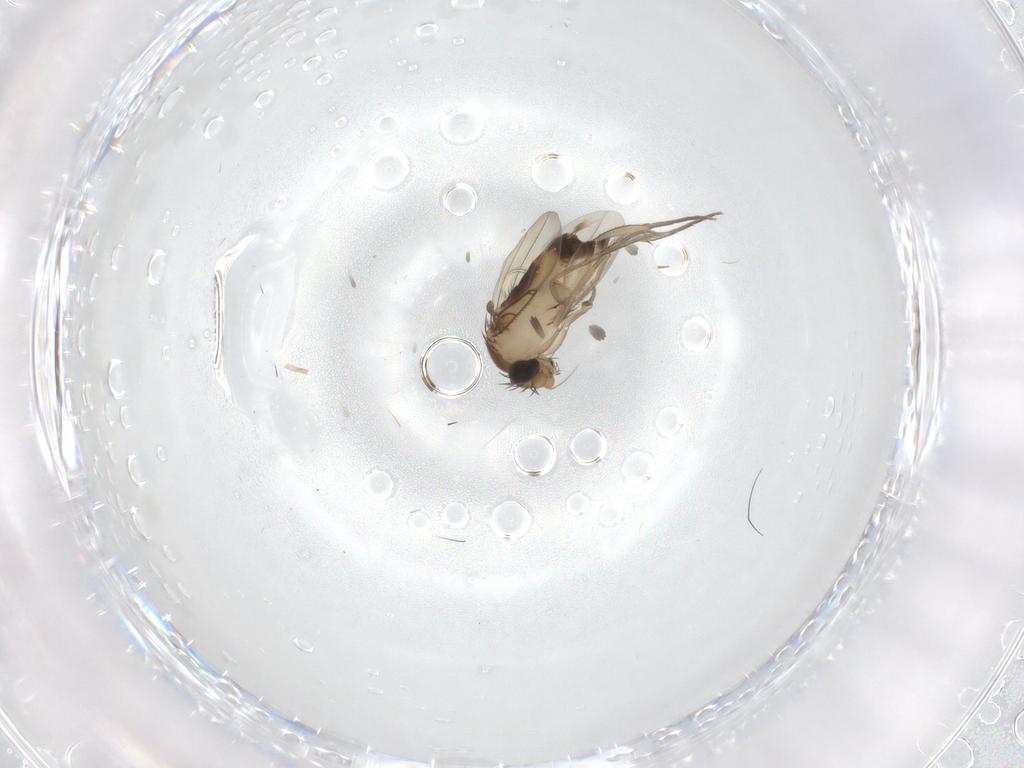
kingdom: Animalia
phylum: Arthropoda
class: Insecta
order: Diptera
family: Phoridae
